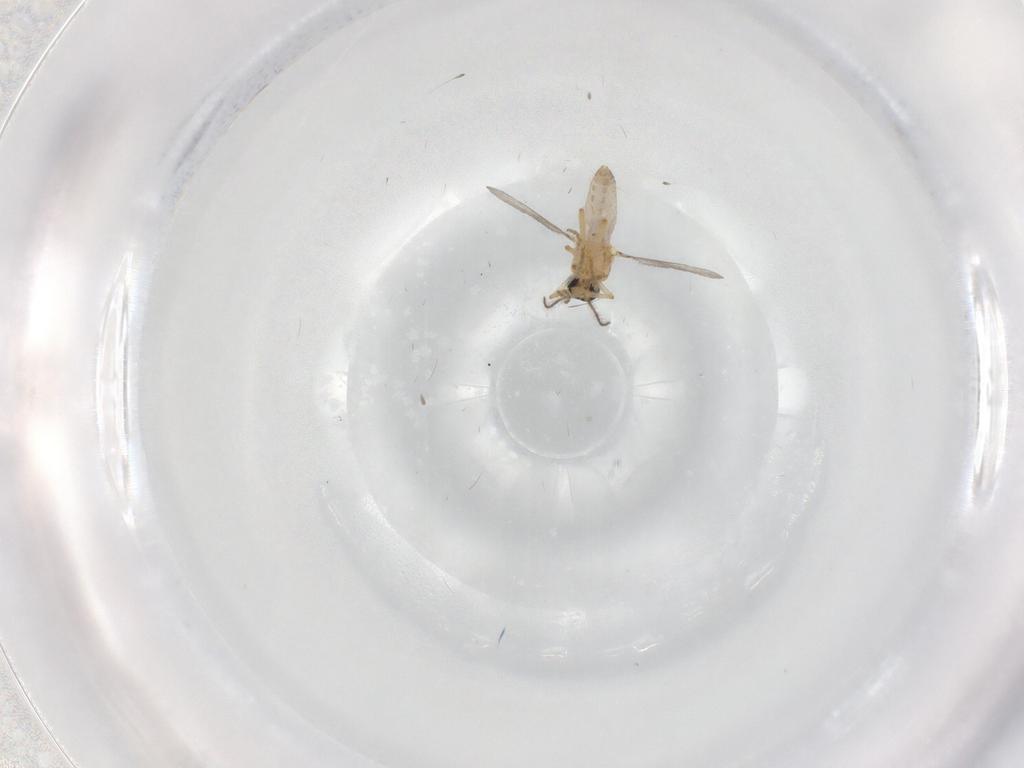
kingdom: Animalia
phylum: Arthropoda
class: Insecta
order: Diptera
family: Ceratopogonidae
